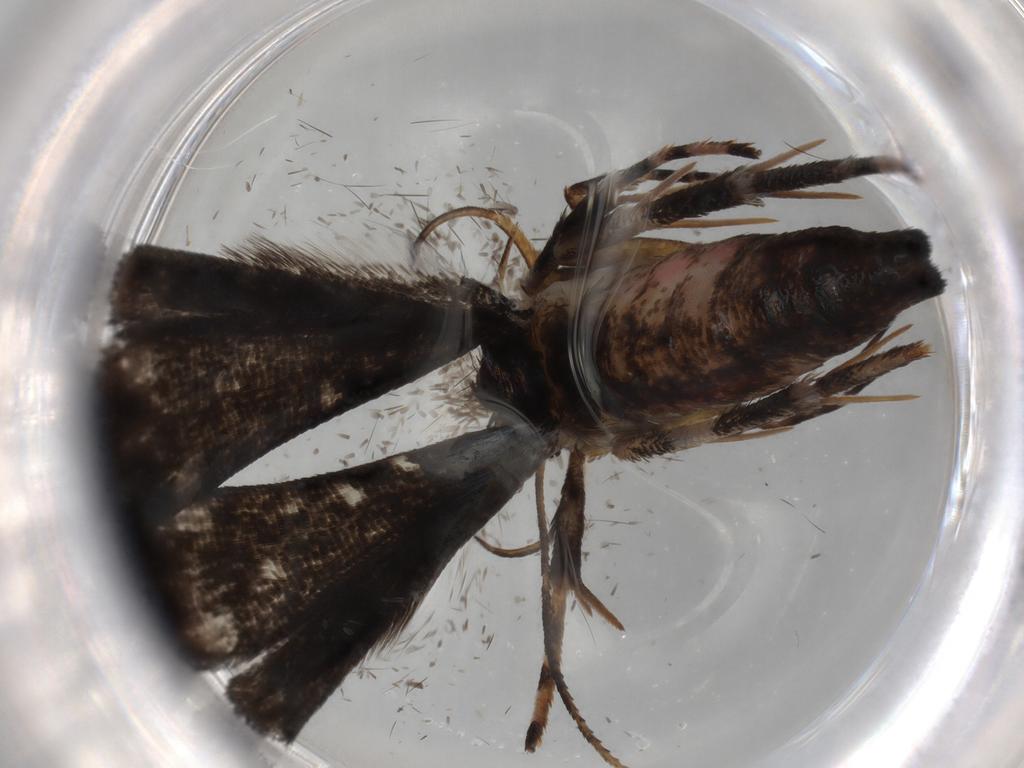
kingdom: Animalia
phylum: Arthropoda
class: Insecta
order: Lepidoptera
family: Gelechiidae
